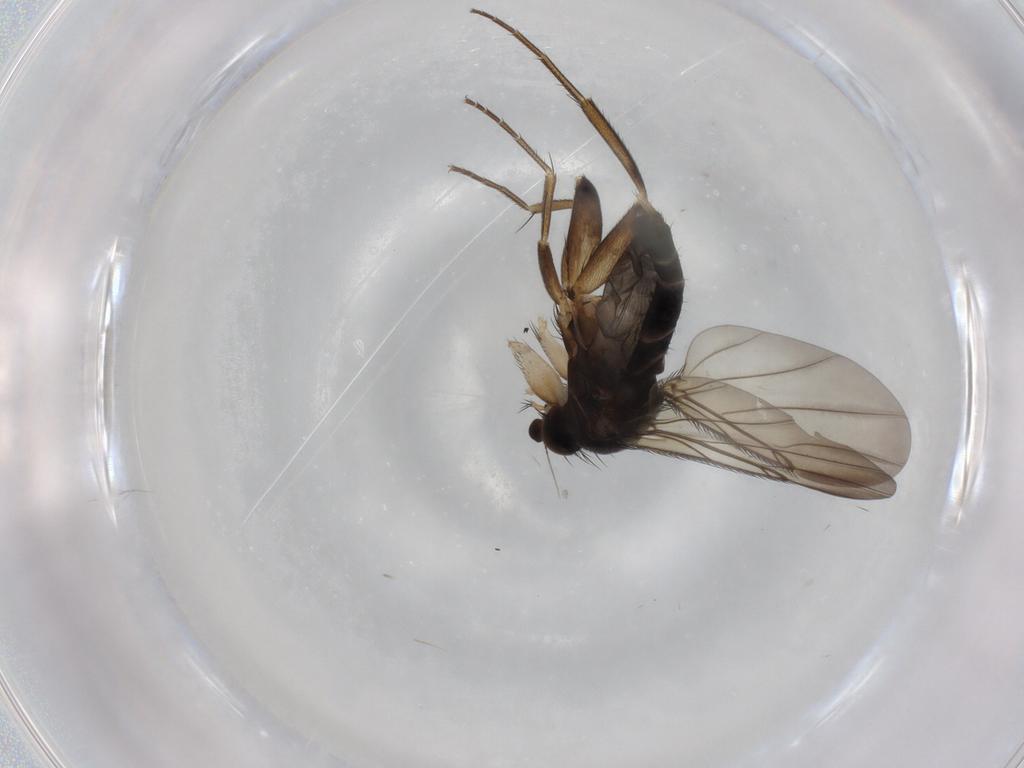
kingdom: Animalia
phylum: Arthropoda
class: Insecta
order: Diptera
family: Phoridae
